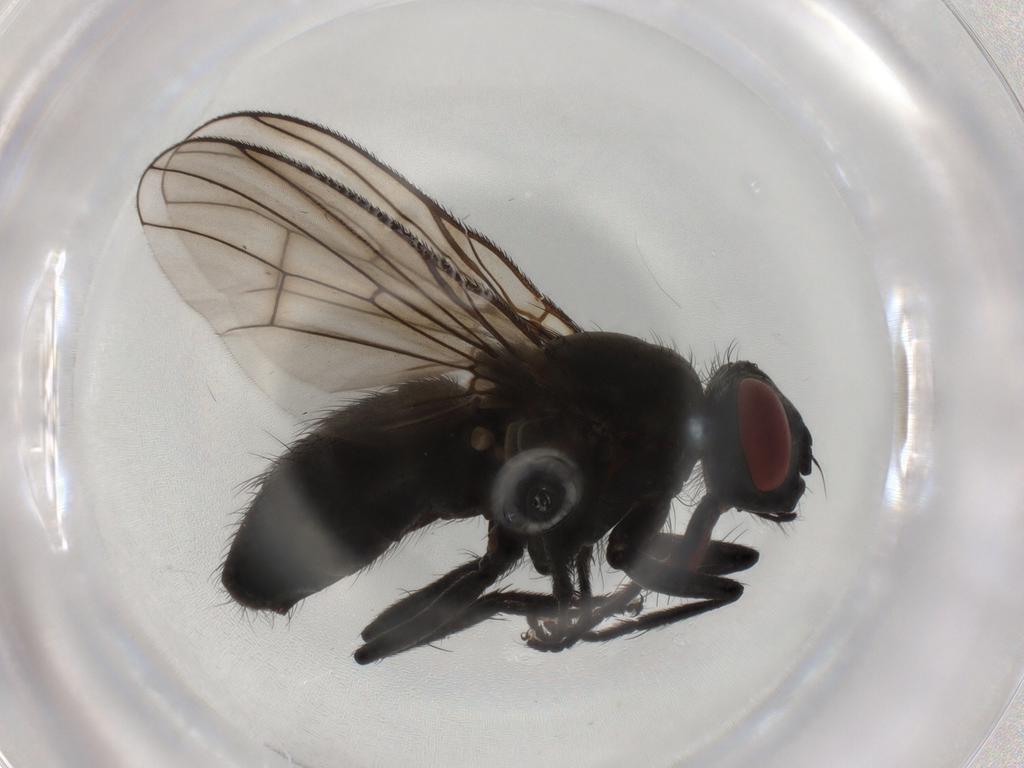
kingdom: Animalia
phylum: Arthropoda
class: Insecta
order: Diptera
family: Muscidae
